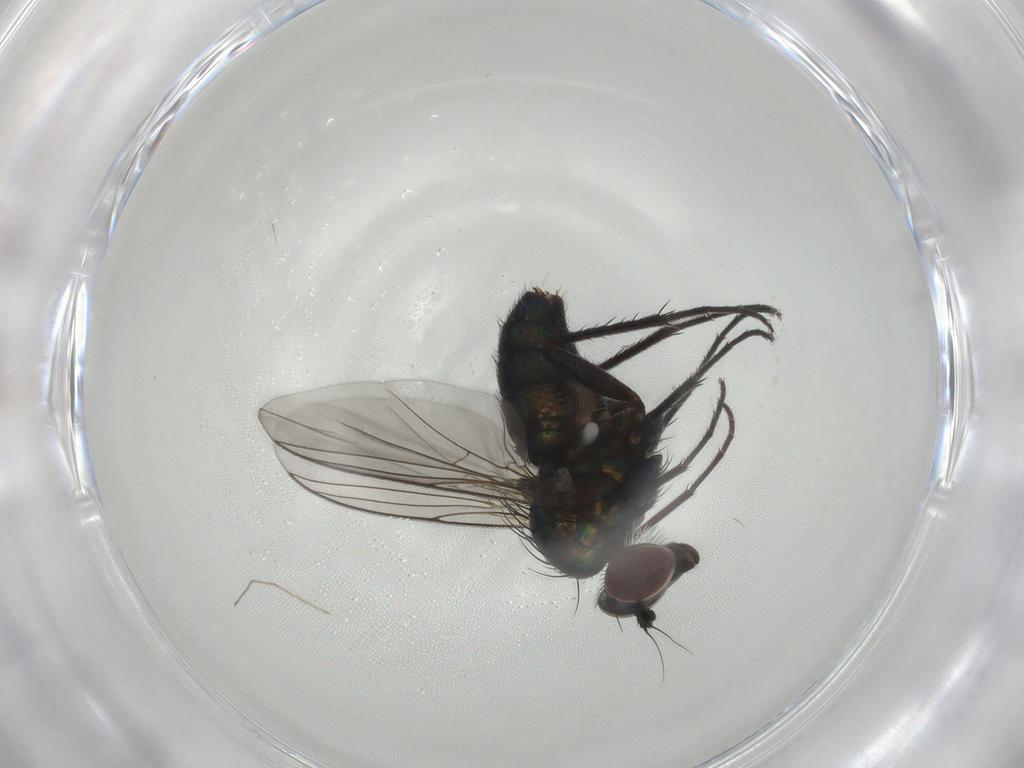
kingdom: Animalia
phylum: Arthropoda
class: Insecta
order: Diptera
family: Dolichopodidae
